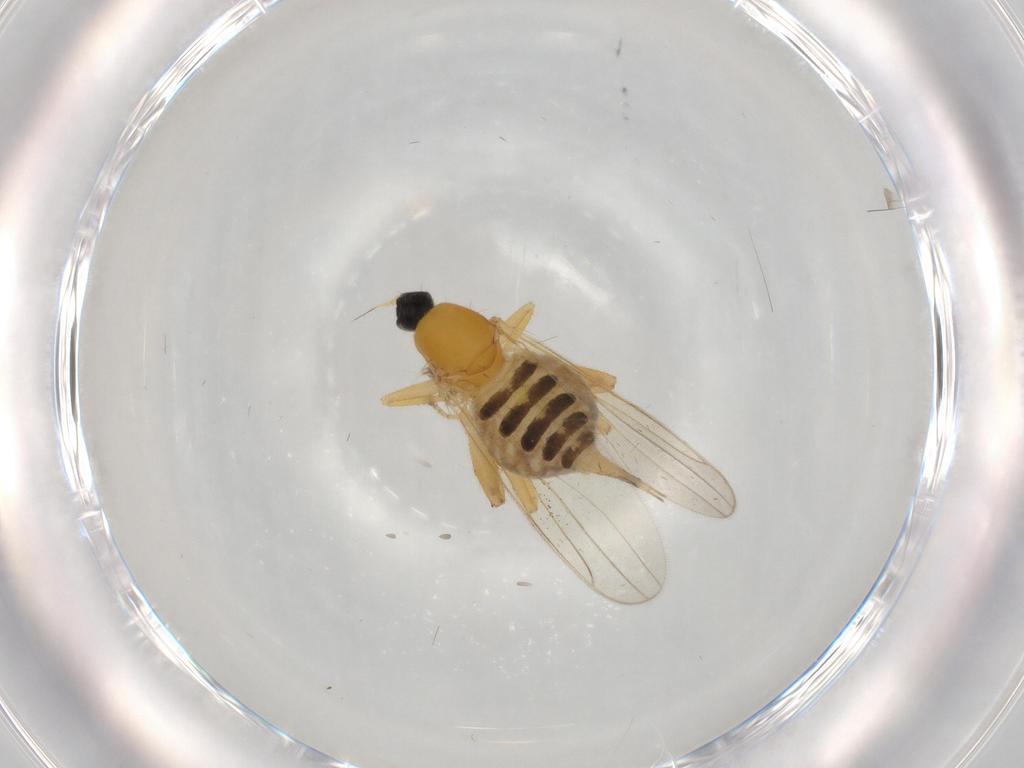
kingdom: Animalia
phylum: Arthropoda
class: Insecta
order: Diptera
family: Hybotidae
